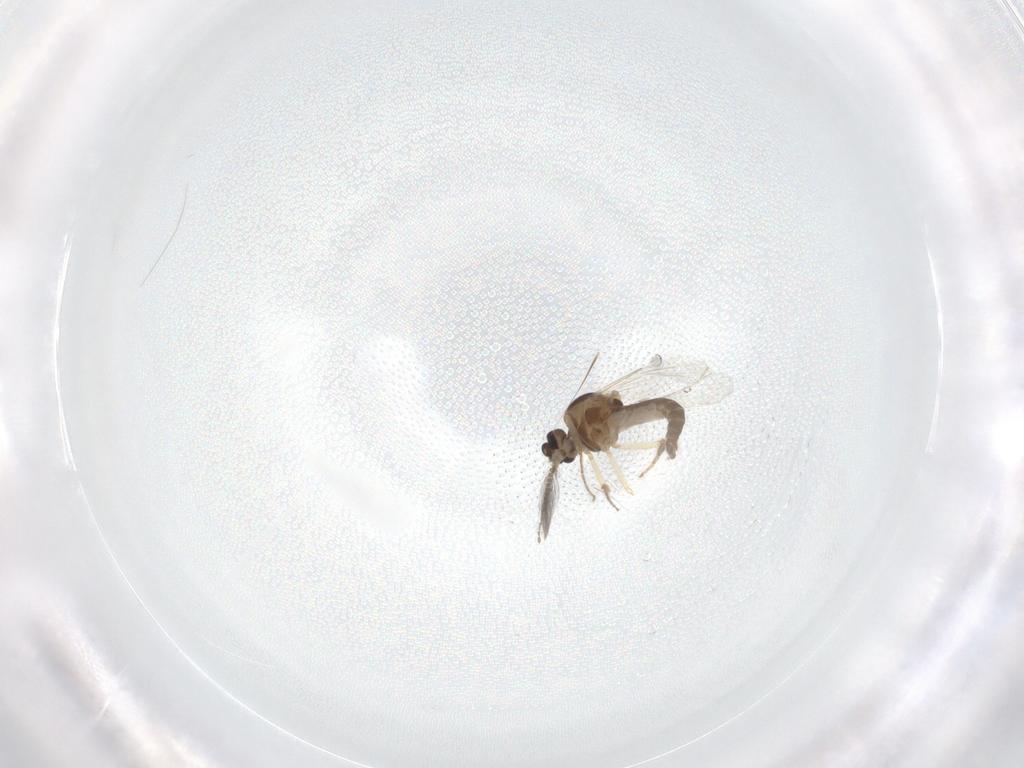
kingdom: Animalia
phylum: Arthropoda
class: Insecta
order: Diptera
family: Ceratopogonidae
